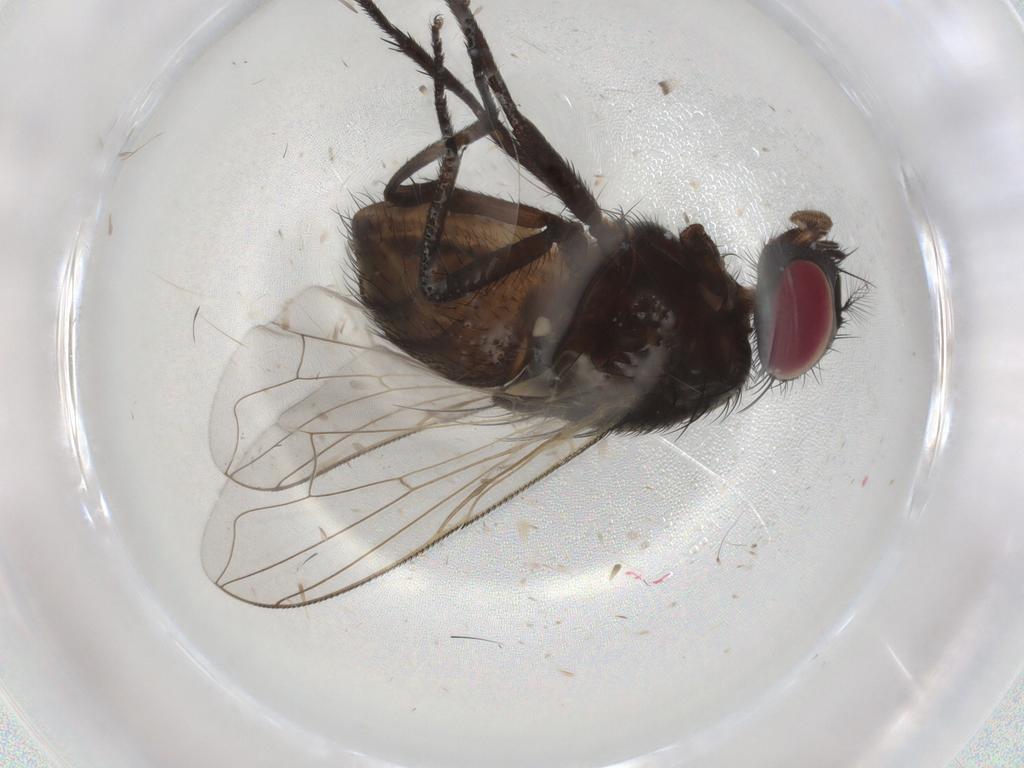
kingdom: Animalia
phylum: Arthropoda
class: Insecta
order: Diptera
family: Muscidae
